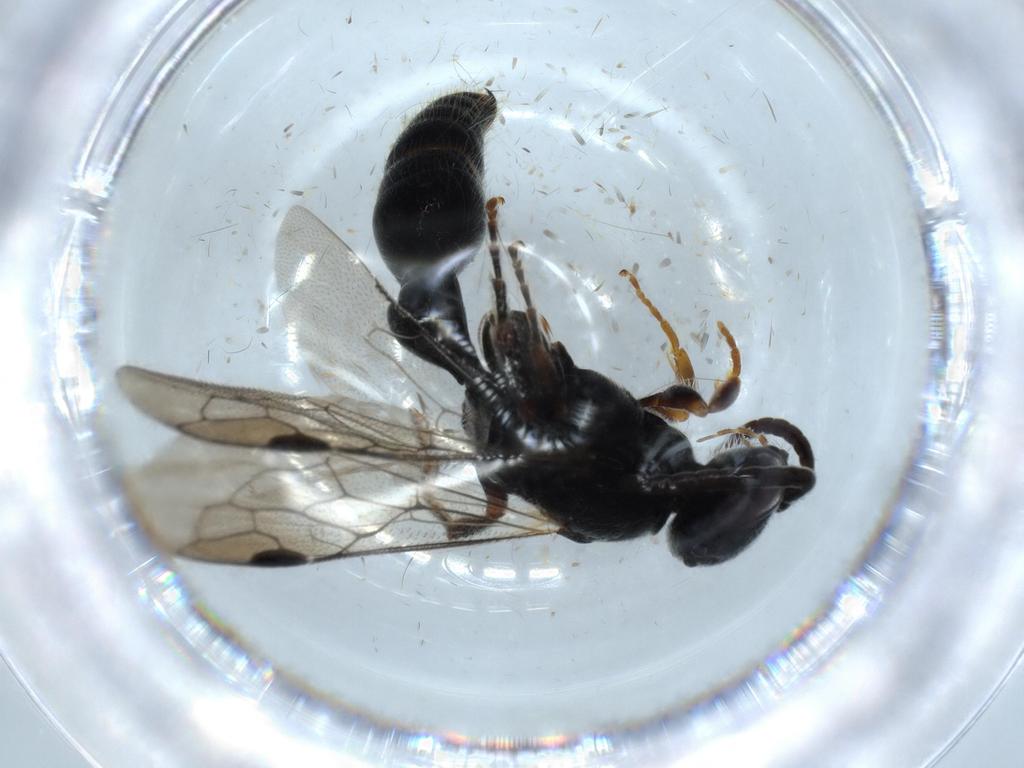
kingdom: Animalia
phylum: Arthropoda
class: Insecta
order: Hymenoptera
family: Tiphiidae
